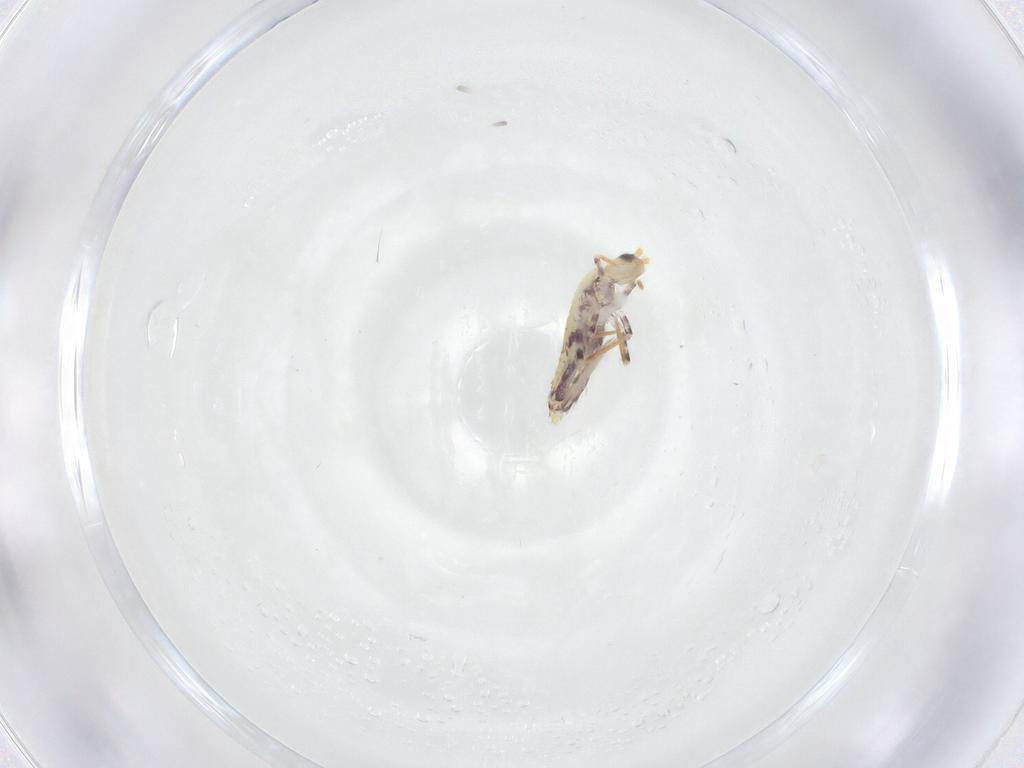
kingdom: Animalia
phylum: Arthropoda
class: Collembola
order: Entomobryomorpha
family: Entomobryidae
